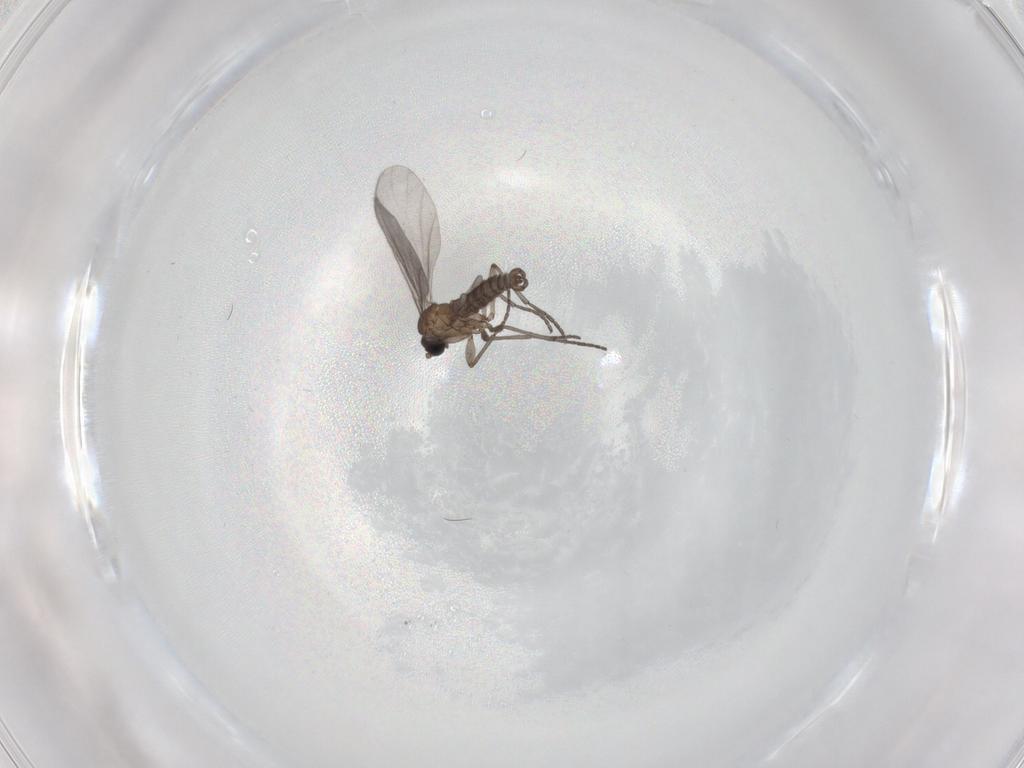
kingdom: Animalia
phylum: Arthropoda
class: Insecta
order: Diptera
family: Sciaridae
